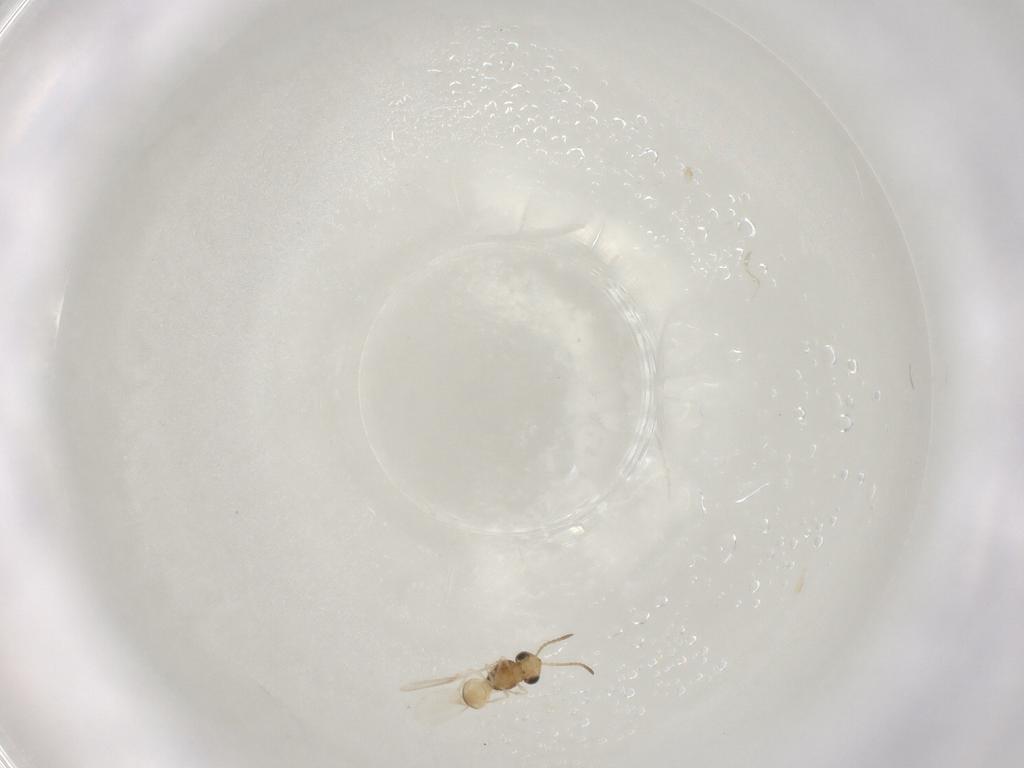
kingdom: Animalia
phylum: Arthropoda
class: Insecta
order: Hymenoptera
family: Scelionidae
